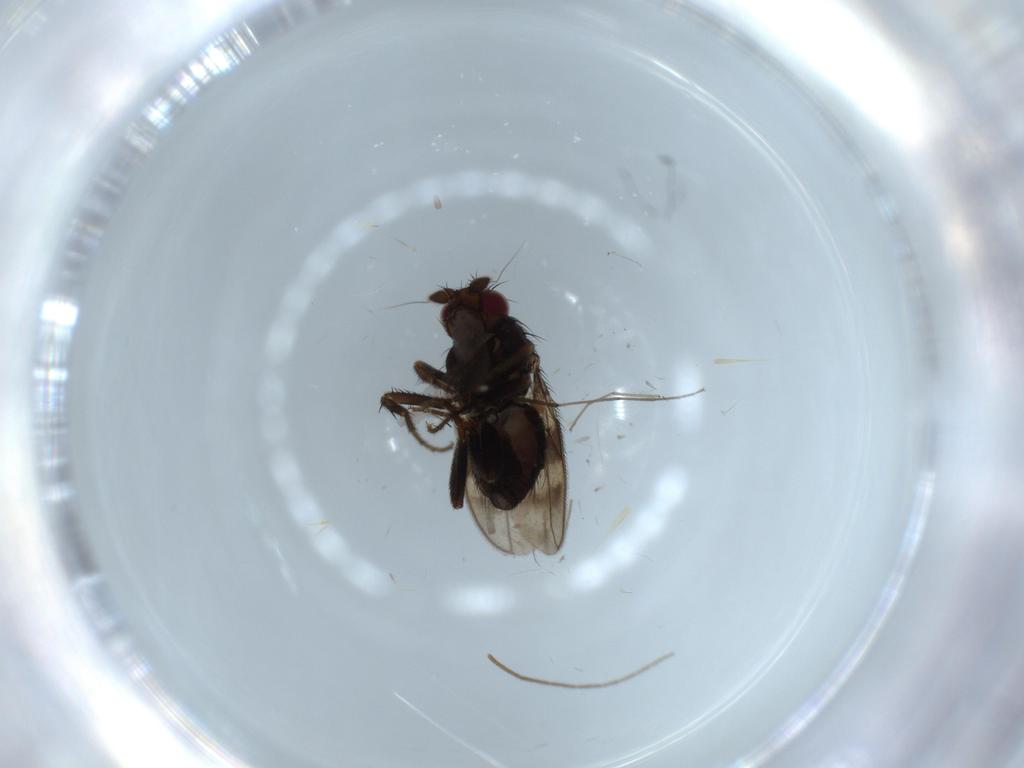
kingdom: Animalia
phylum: Arthropoda
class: Insecta
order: Diptera
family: Sphaeroceridae
